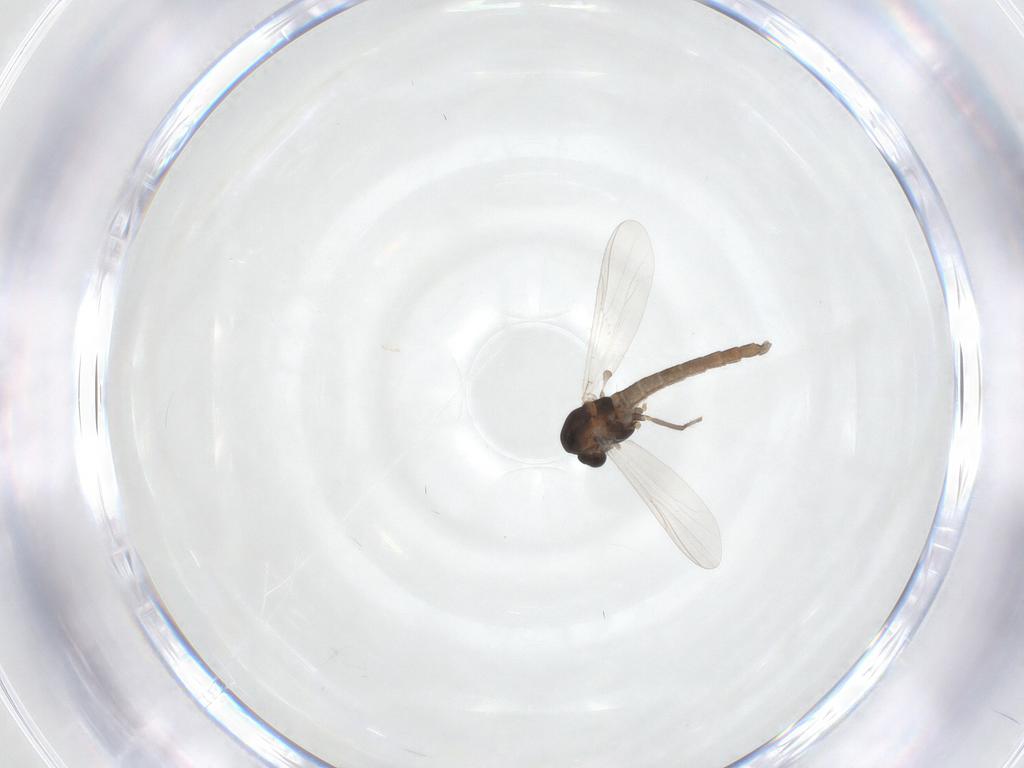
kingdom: Animalia
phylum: Arthropoda
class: Insecta
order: Diptera
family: Chironomidae
